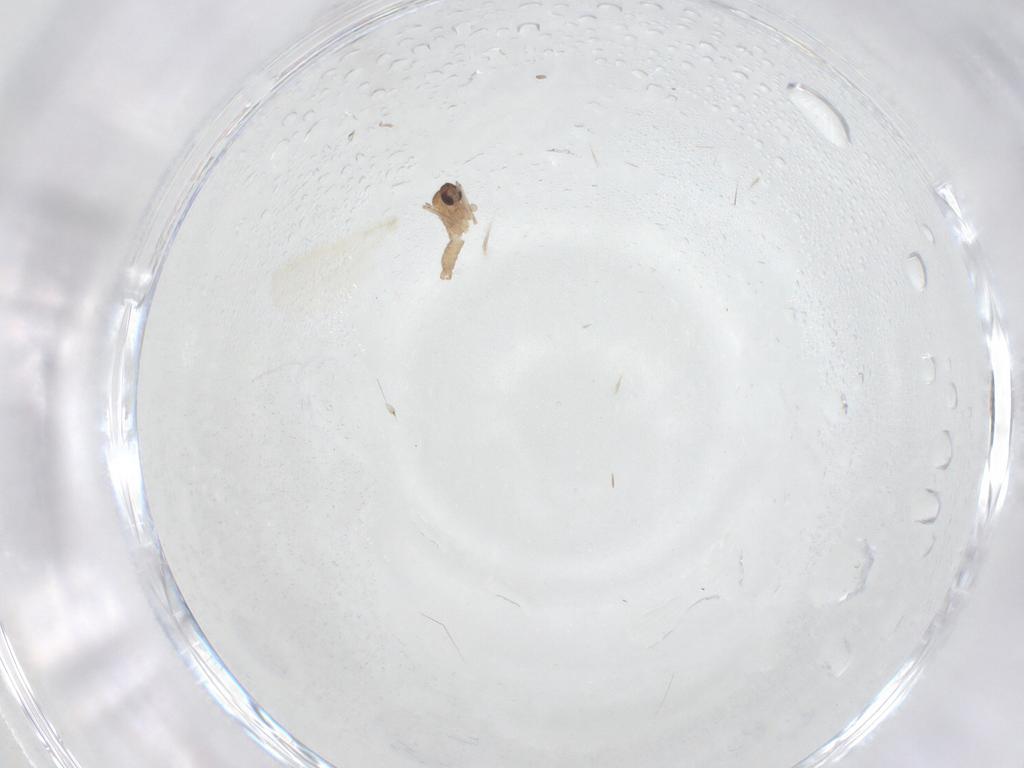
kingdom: Animalia
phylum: Arthropoda
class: Insecta
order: Diptera
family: Cecidomyiidae
